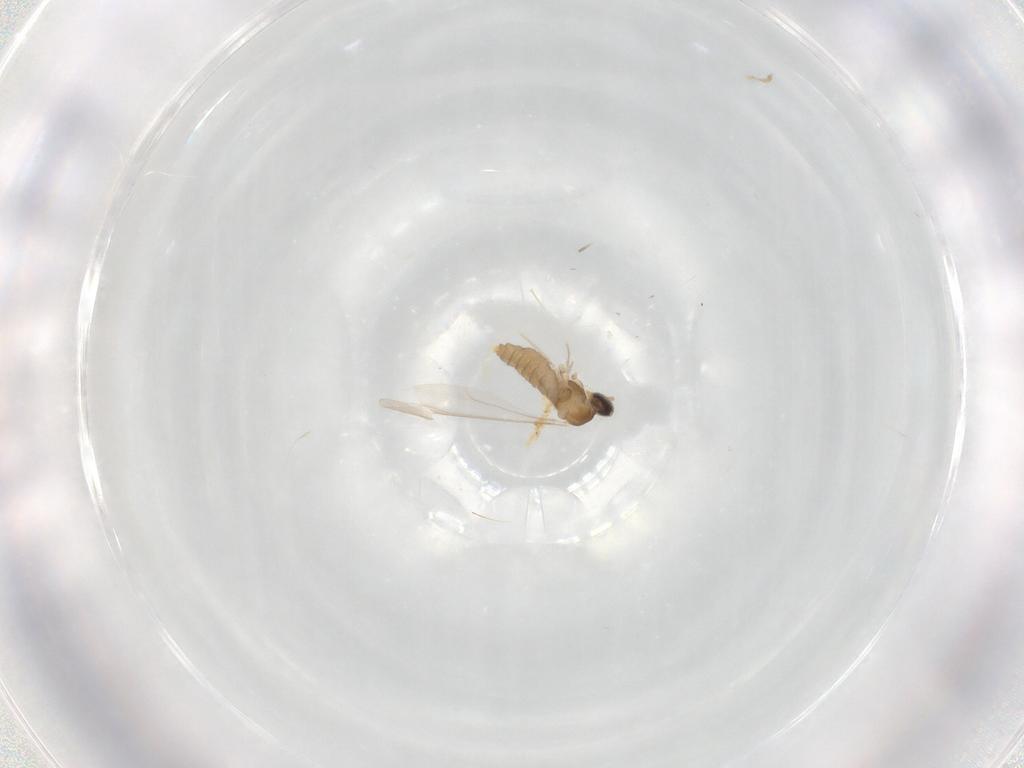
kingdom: Animalia
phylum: Arthropoda
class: Insecta
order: Diptera
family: Cecidomyiidae
